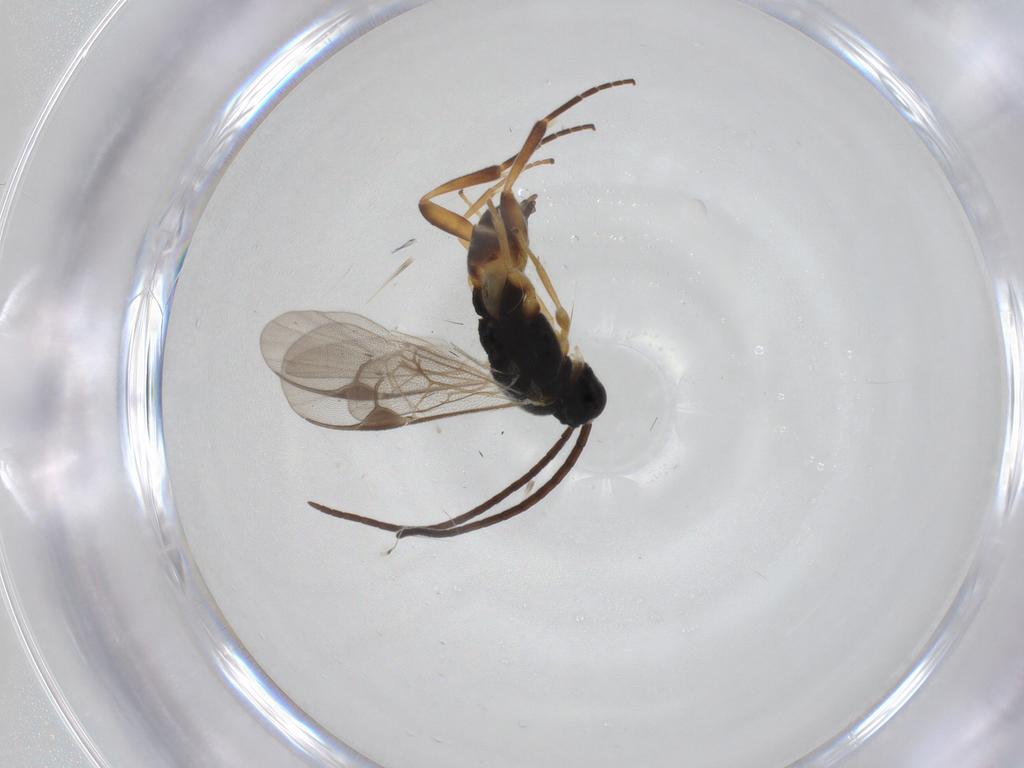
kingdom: Animalia
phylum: Arthropoda
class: Insecta
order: Hymenoptera
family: Braconidae
